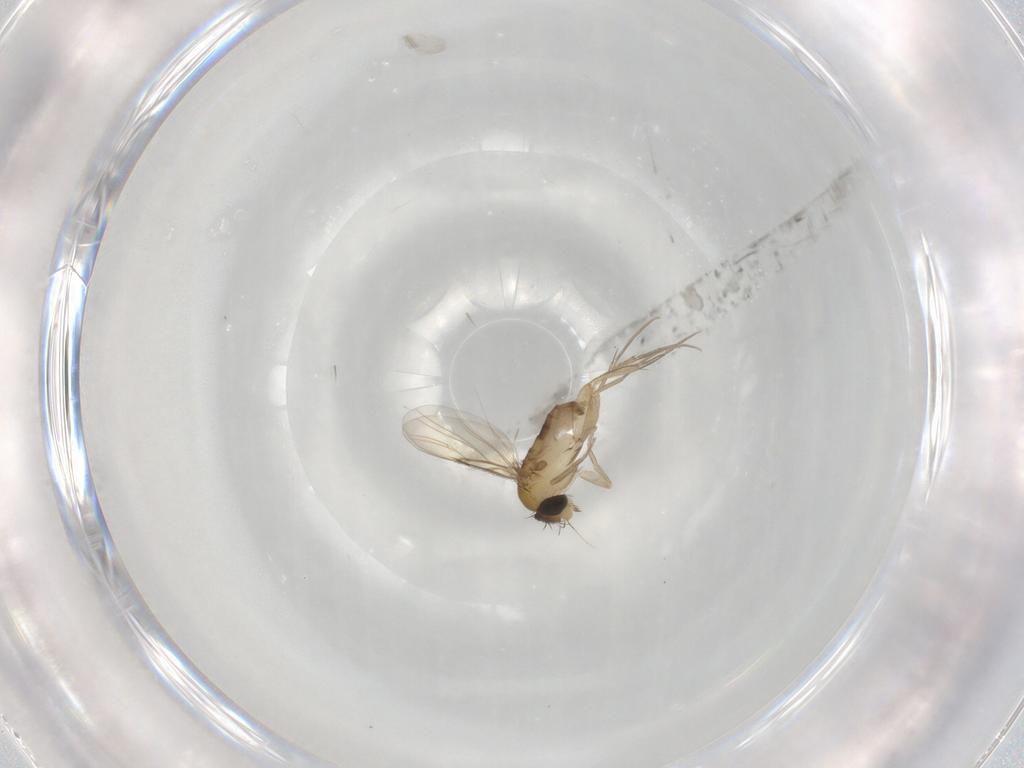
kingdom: Animalia
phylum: Arthropoda
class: Insecta
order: Diptera
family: Phoridae
